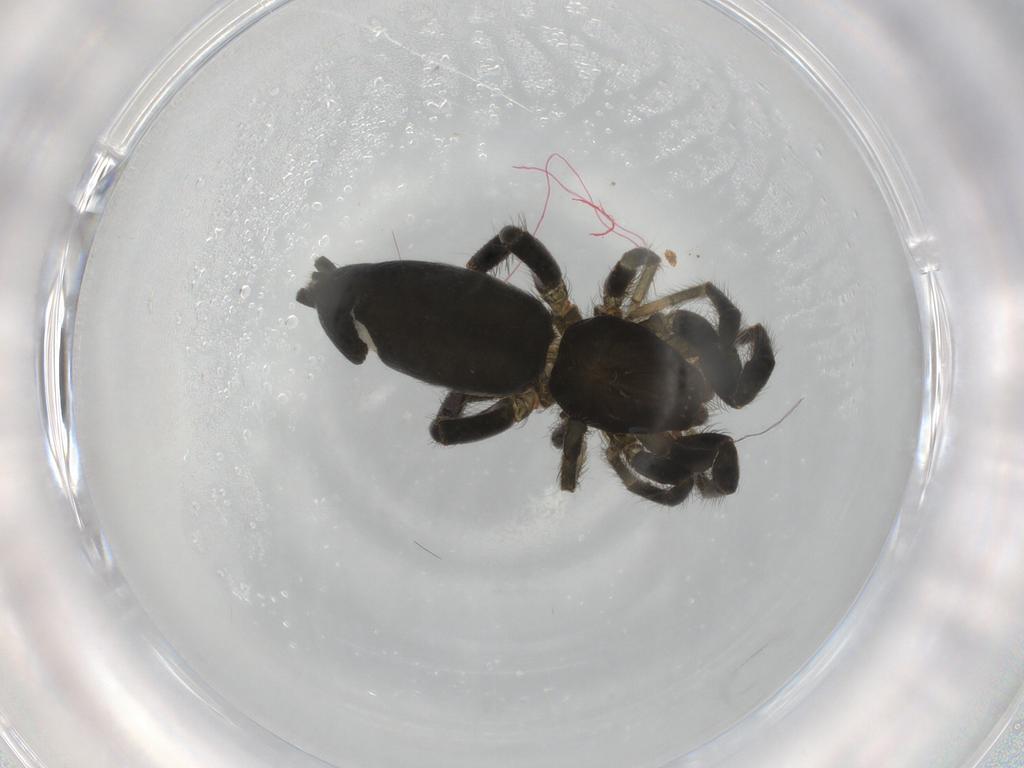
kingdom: Animalia
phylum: Arthropoda
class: Arachnida
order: Araneae
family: Gnaphosidae
